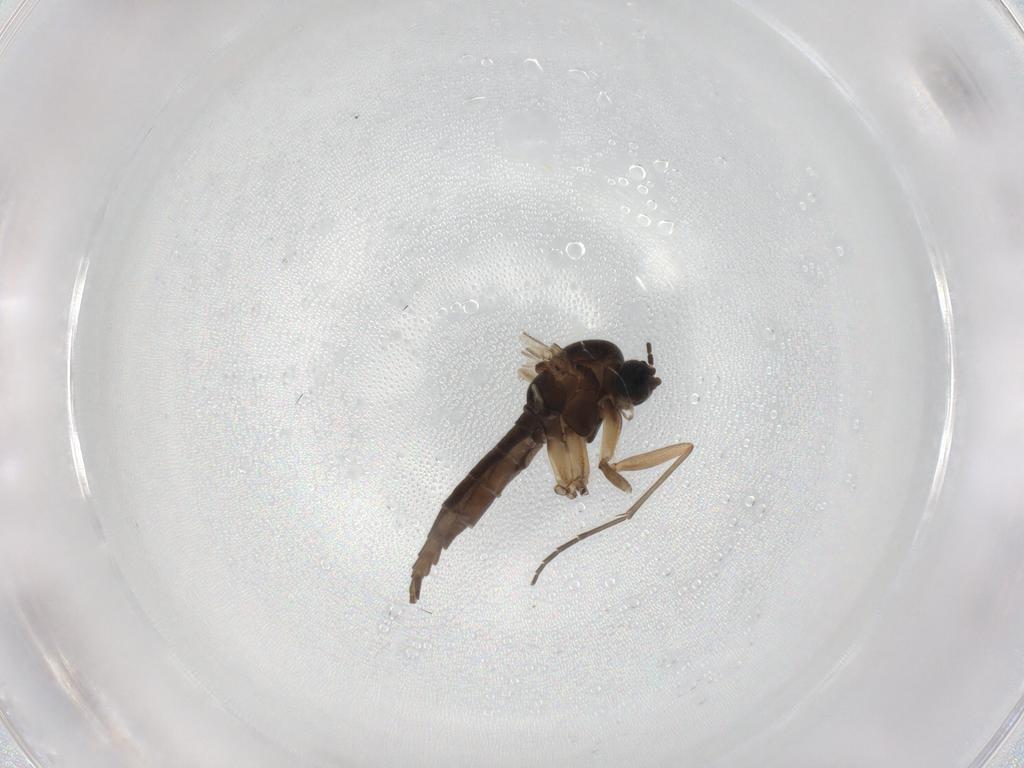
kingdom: Animalia
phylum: Arthropoda
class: Insecta
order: Diptera
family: Sciaridae
